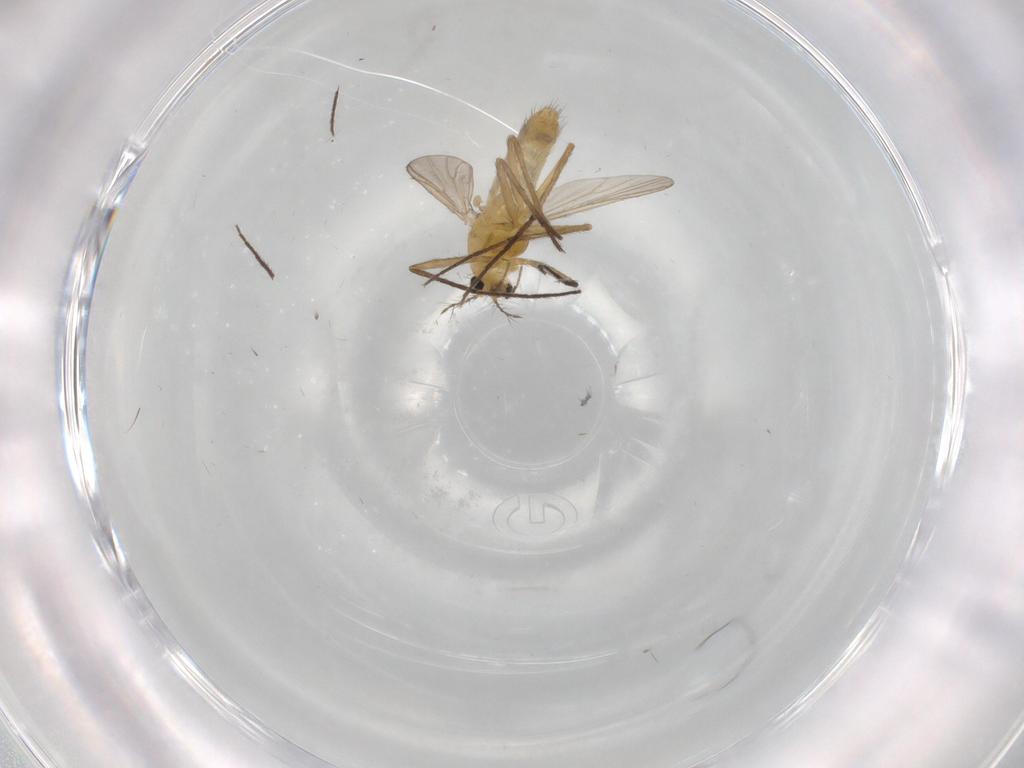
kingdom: Animalia
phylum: Arthropoda
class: Insecta
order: Diptera
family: Chironomidae
